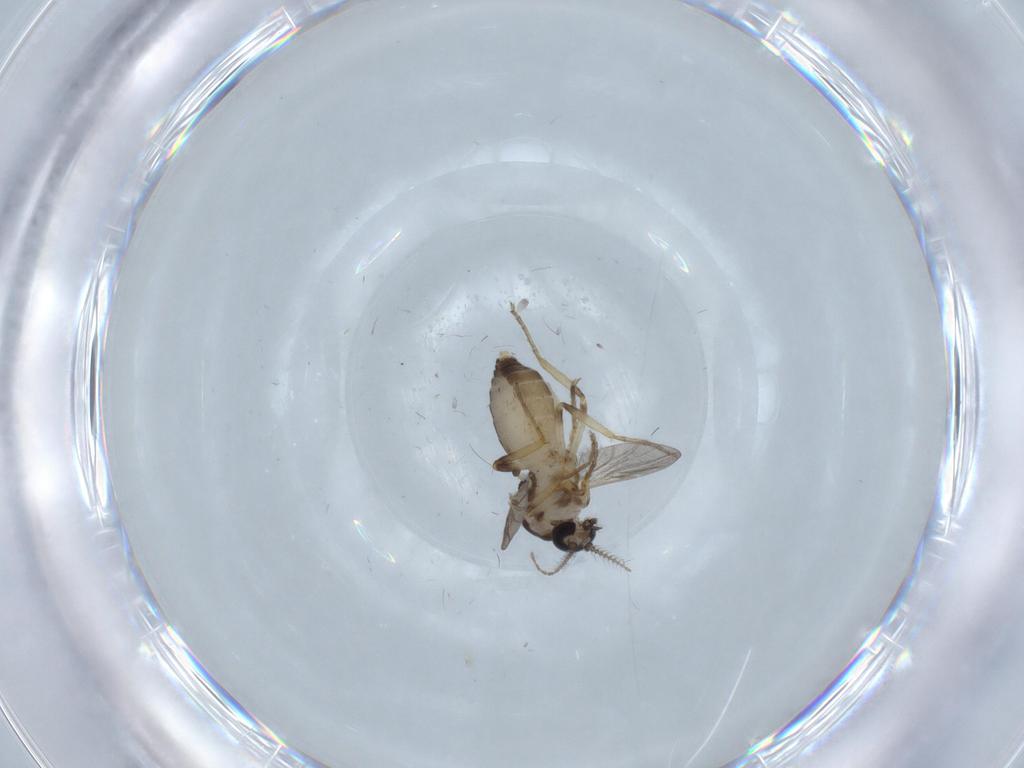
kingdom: Animalia
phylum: Arthropoda
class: Insecta
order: Diptera
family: Ceratopogonidae
